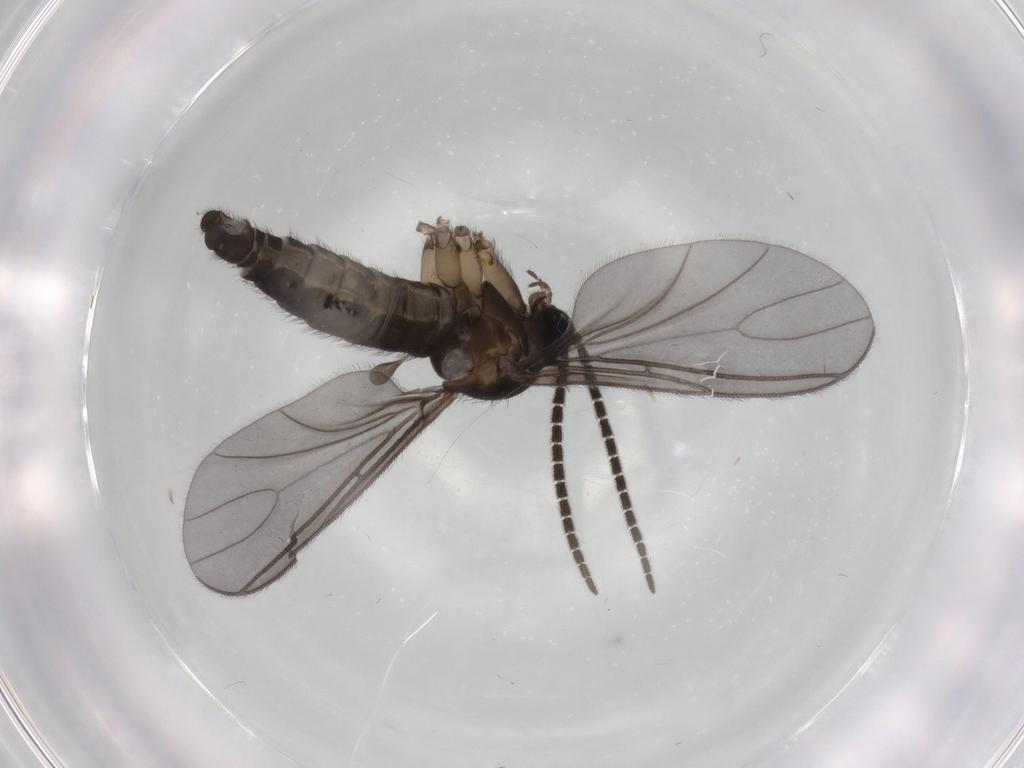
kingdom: Animalia
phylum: Arthropoda
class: Insecta
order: Diptera
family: Sciaridae
